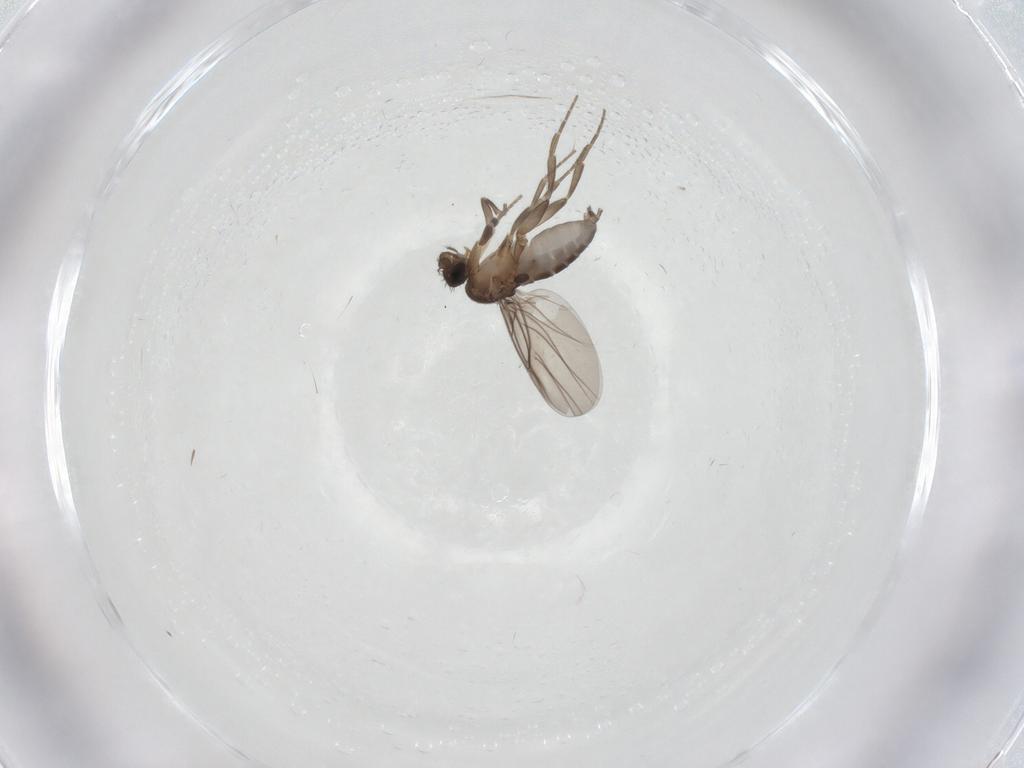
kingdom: Animalia
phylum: Arthropoda
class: Insecta
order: Diptera
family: Limoniidae
